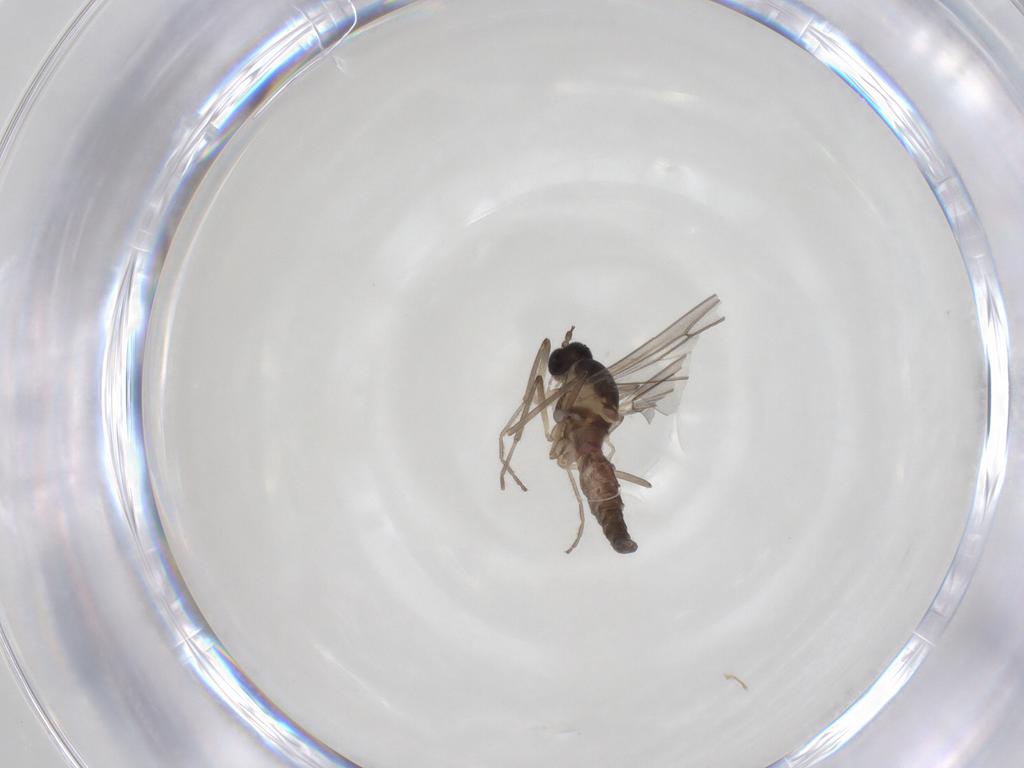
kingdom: Animalia
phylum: Arthropoda
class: Insecta
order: Diptera
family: Cecidomyiidae
